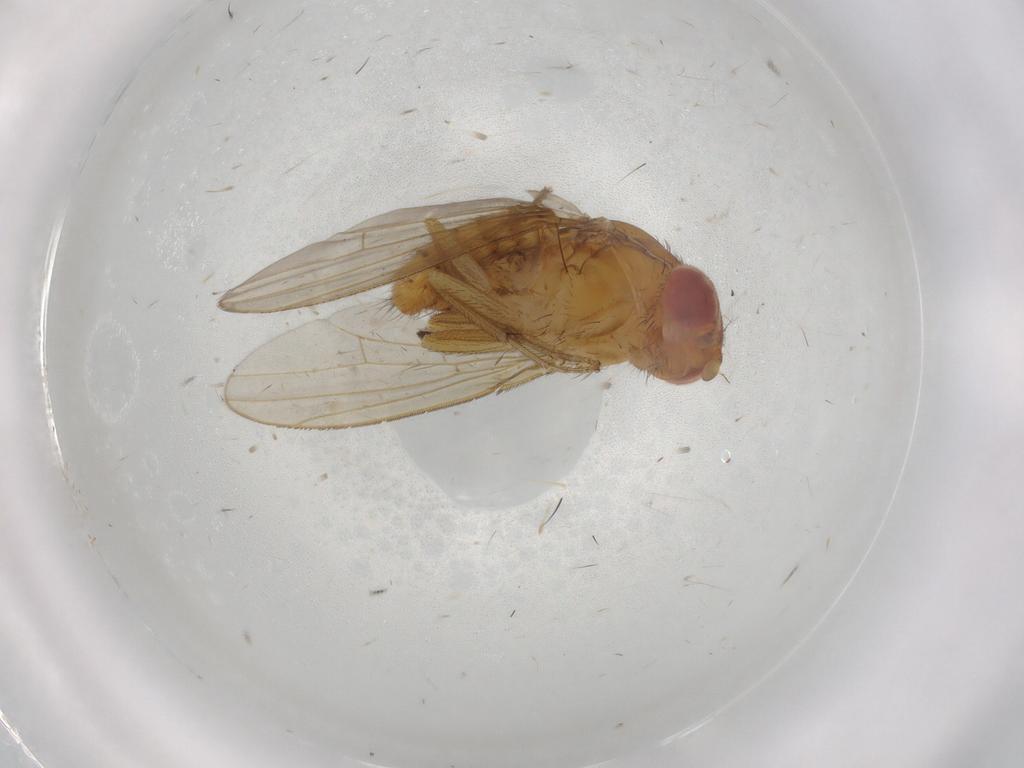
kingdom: Animalia
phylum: Arthropoda
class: Insecta
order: Diptera
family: Drosophilidae
